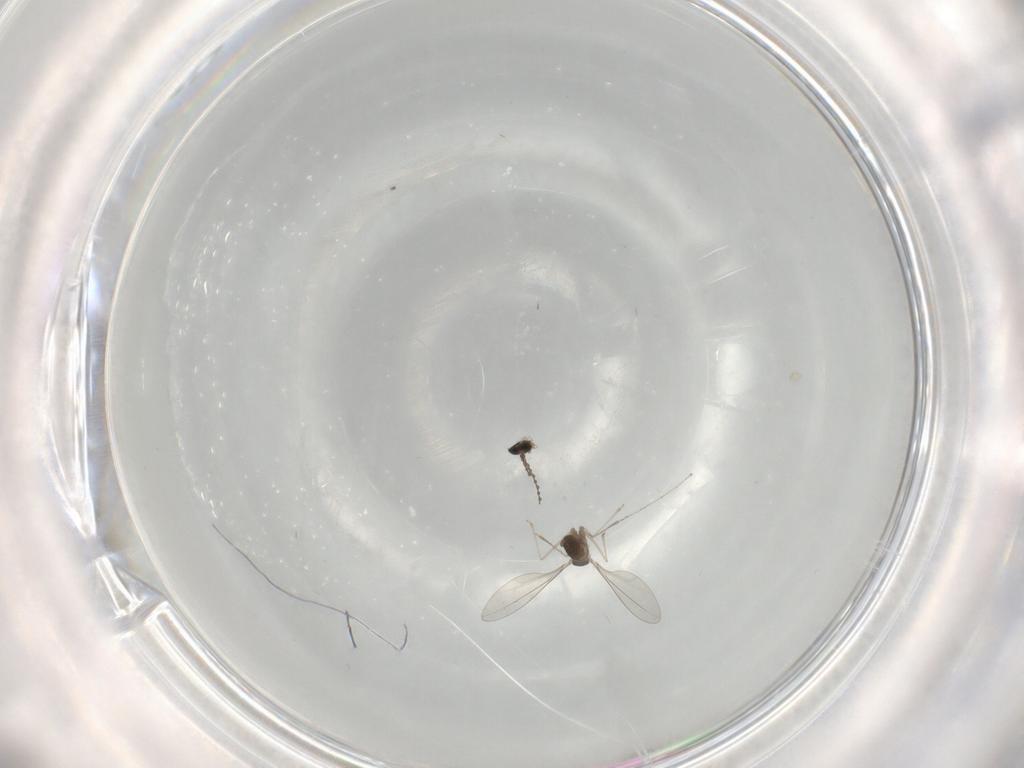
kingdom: Animalia
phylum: Arthropoda
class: Insecta
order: Diptera
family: Cecidomyiidae
